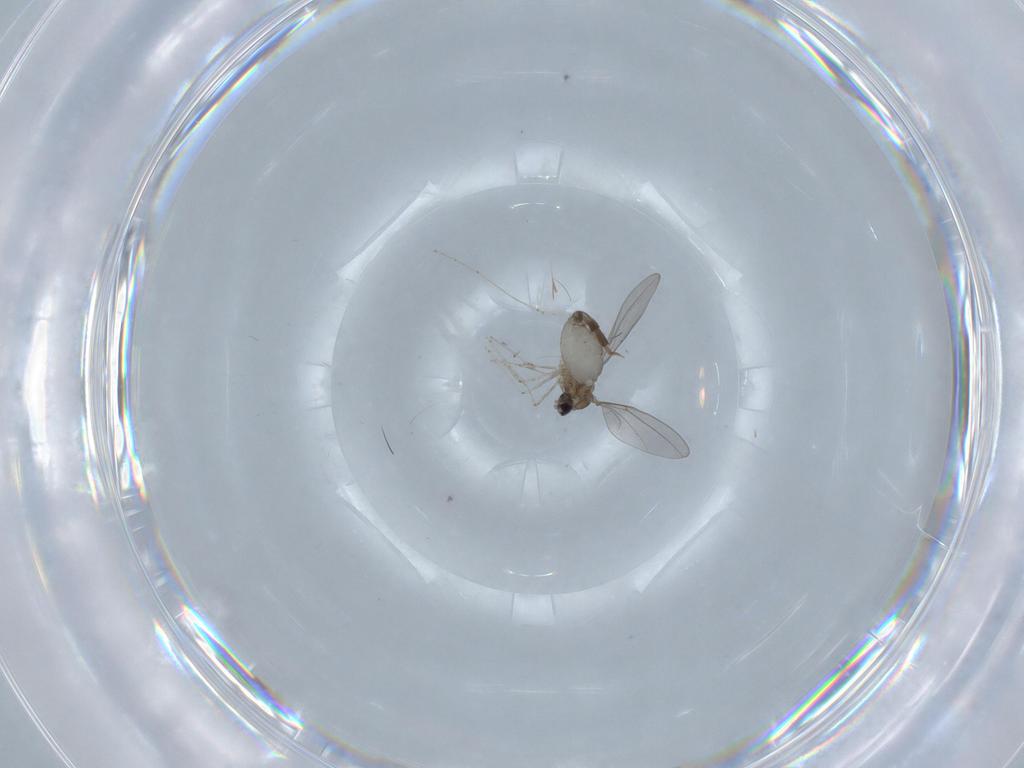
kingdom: Animalia
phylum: Arthropoda
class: Insecta
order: Diptera
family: Cecidomyiidae
